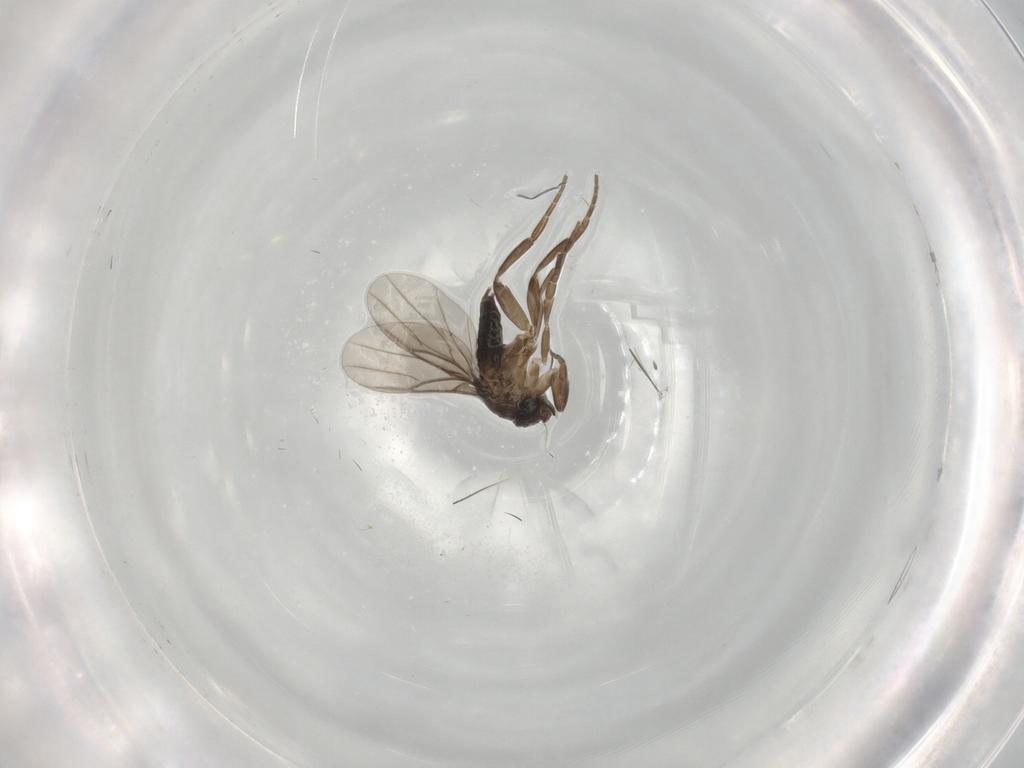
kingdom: Animalia
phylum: Arthropoda
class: Insecta
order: Diptera
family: Phoridae
